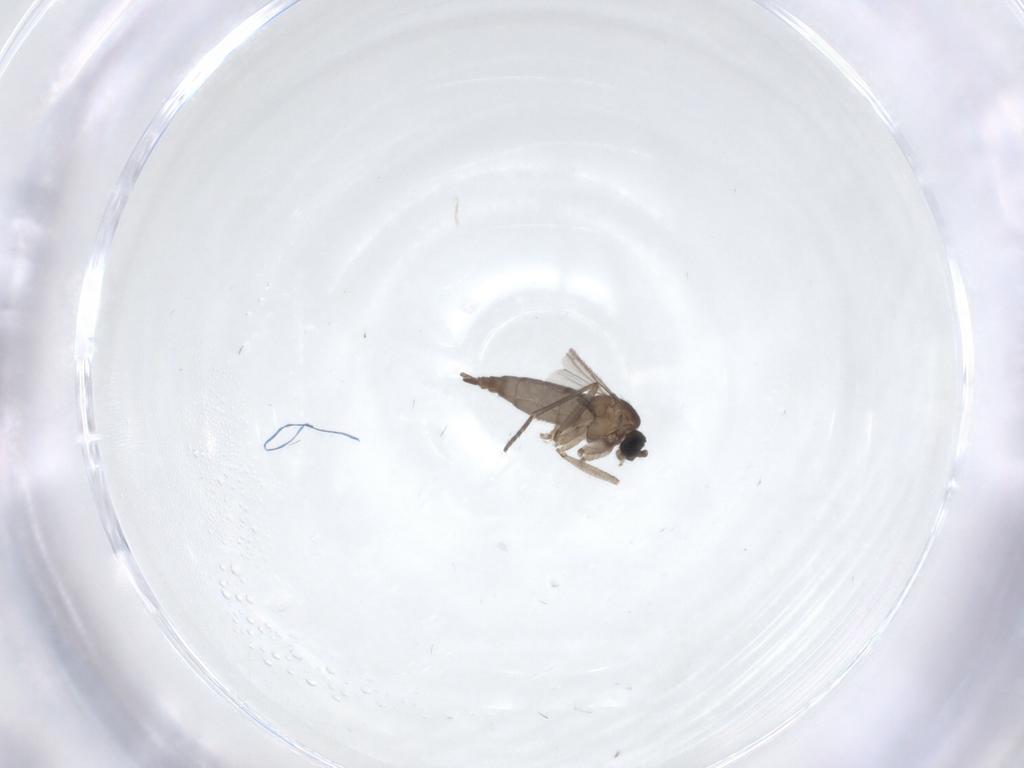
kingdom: Animalia
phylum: Arthropoda
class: Insecta
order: Diptera
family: Sciaridae
